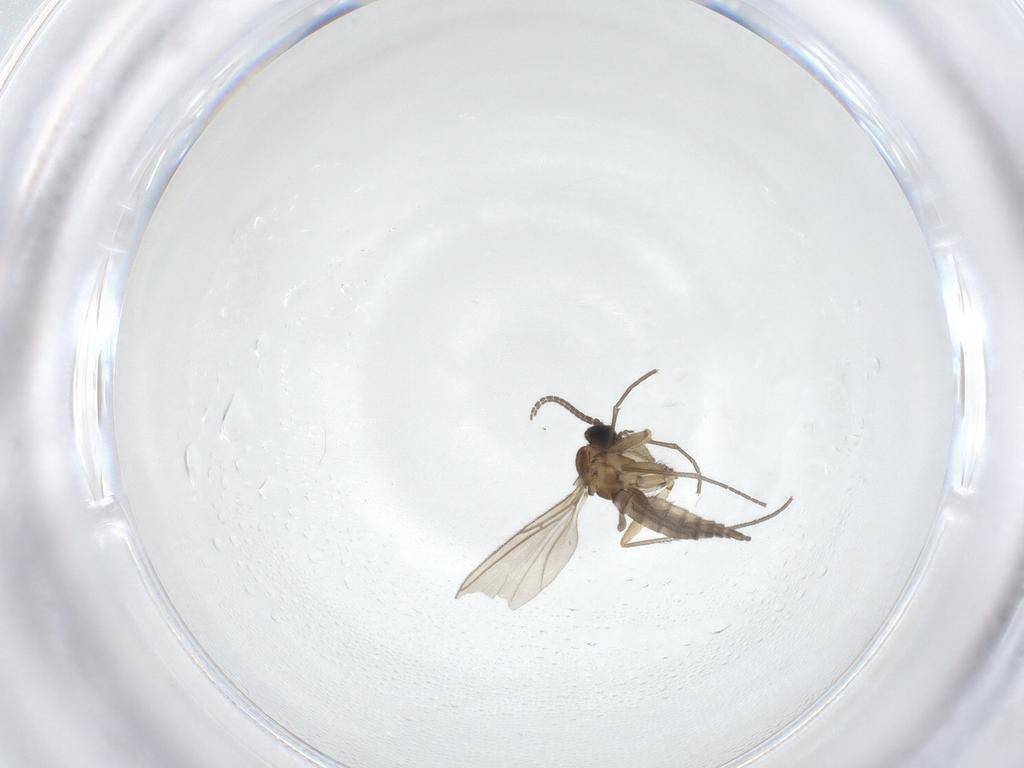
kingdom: Animalia
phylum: Arthropoda
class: Insecta
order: Diptera
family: Sciaridae
